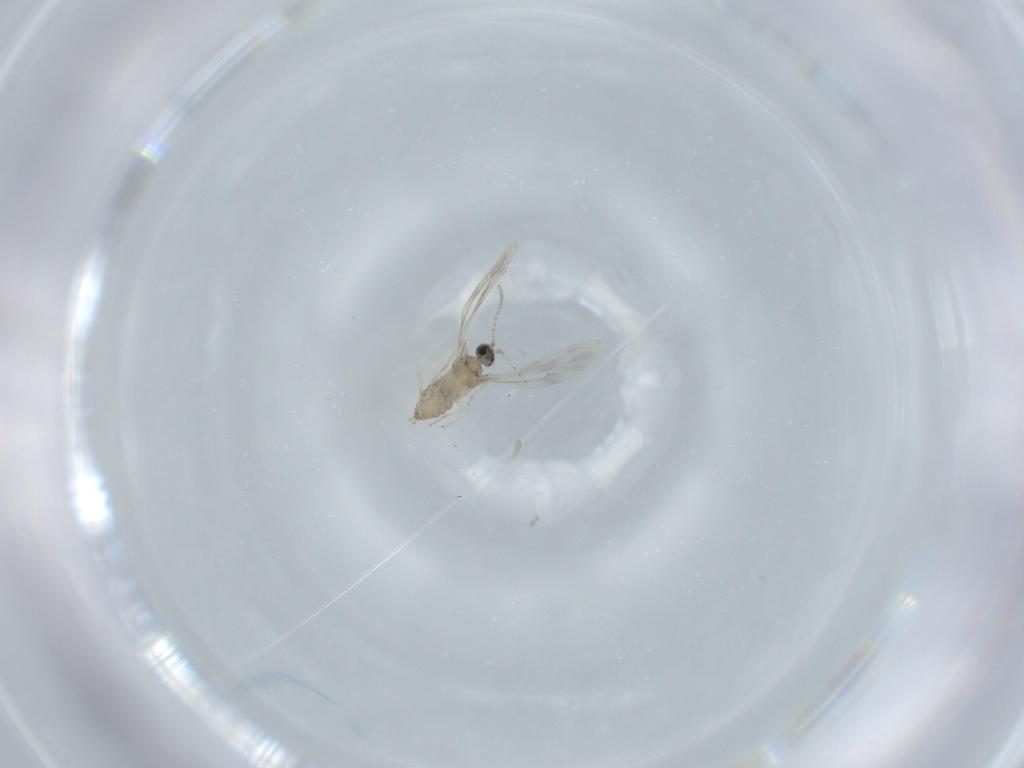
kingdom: Animalia
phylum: Arthropoda
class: Insecta
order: Diptera
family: Cecidomyiidae
